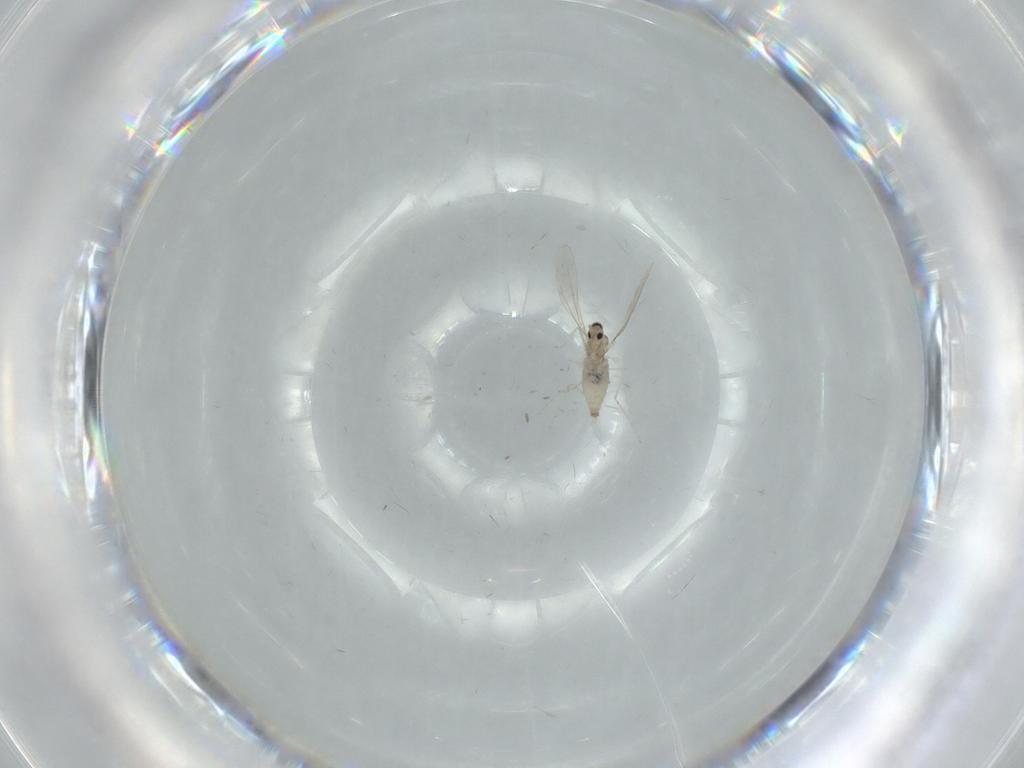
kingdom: Animalia
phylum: Arthropoda
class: Insecta
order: Diptera
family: Cecidomyiidae
